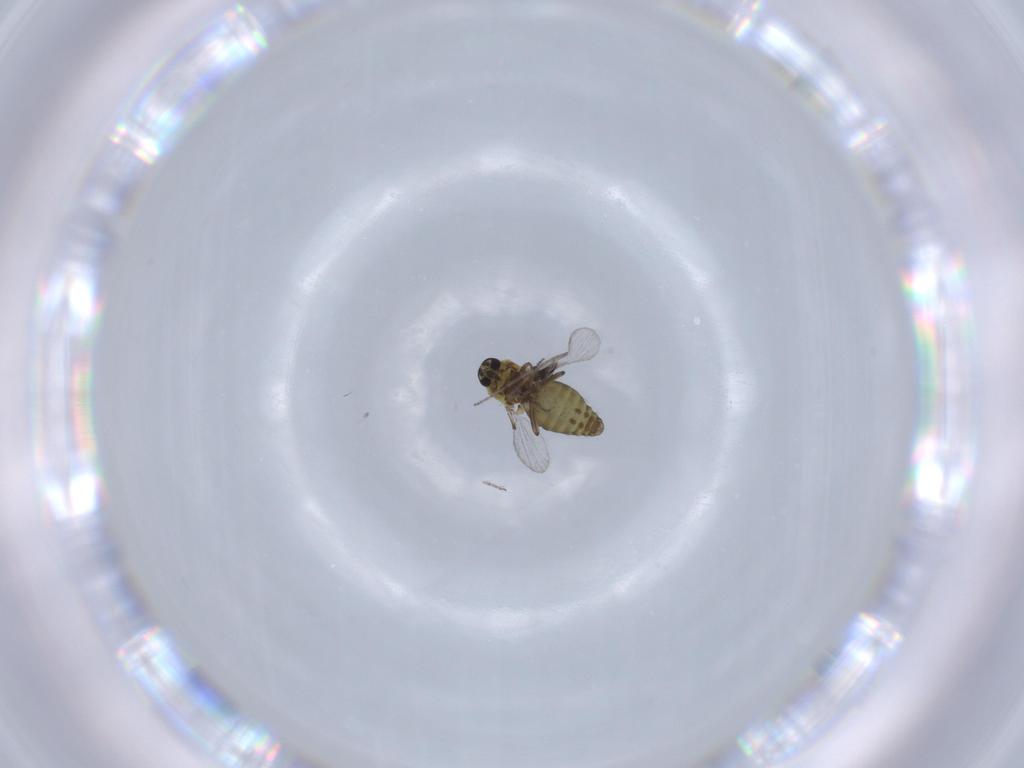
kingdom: Animalia
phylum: Arthropoda
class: Insecta
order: Diptera
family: Ceratopogonidae
